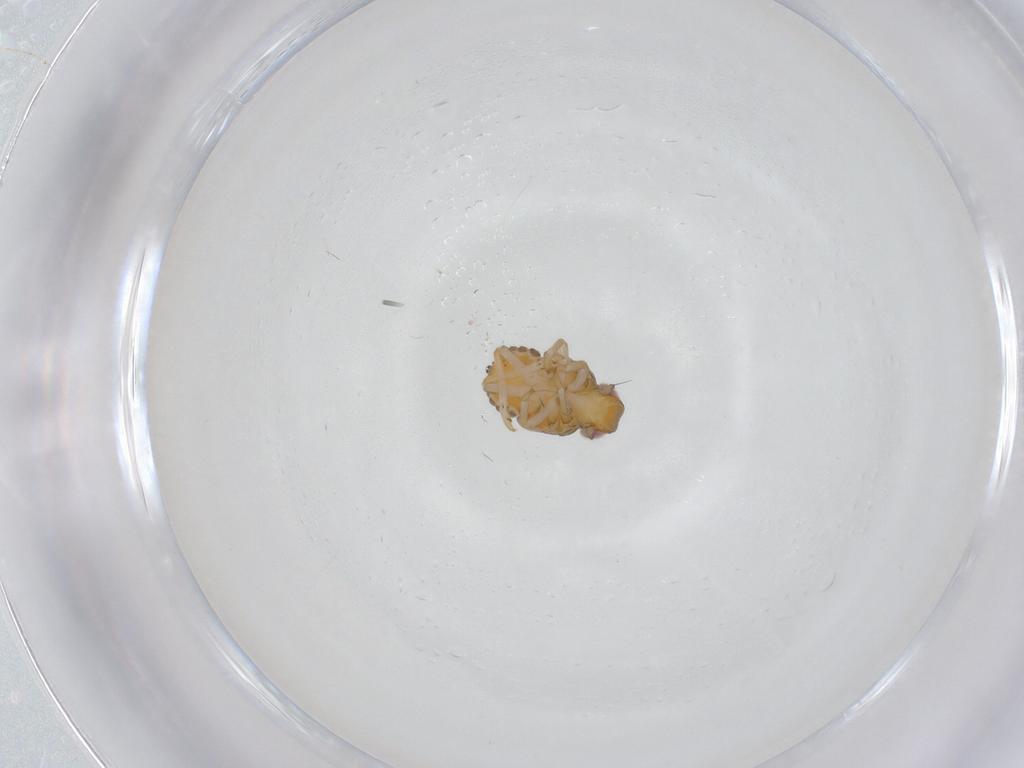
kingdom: Animalia
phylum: Arthropoda
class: Insecta
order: Hemiptera
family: Issidae
